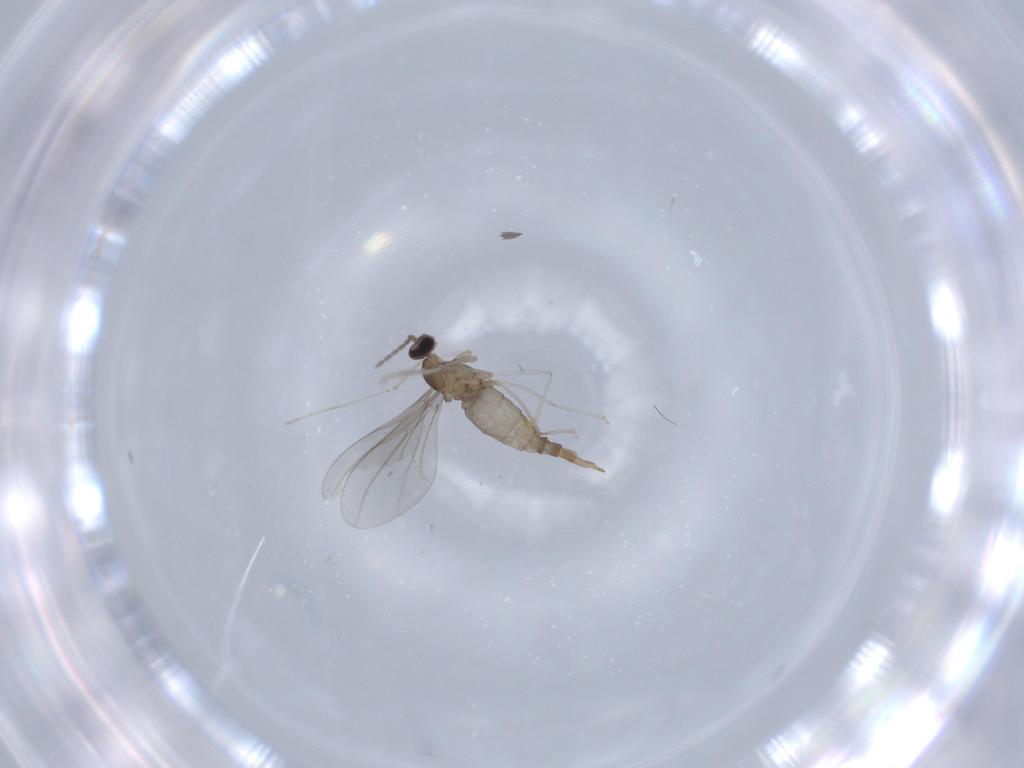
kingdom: Animalia
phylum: Arthropoda
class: Insecta
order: Diptera
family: Cecidomyiidae
